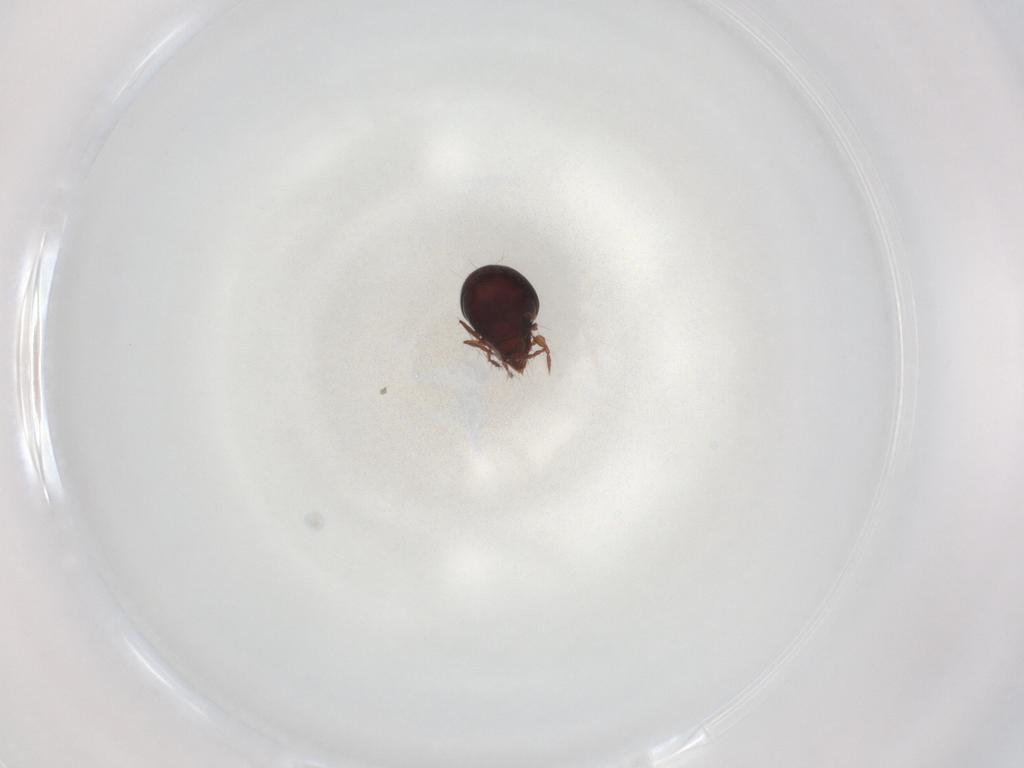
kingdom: Animalia
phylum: Arthropoda
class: Arachnida
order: Sarcoptiformes
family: Ceratoppiidae
